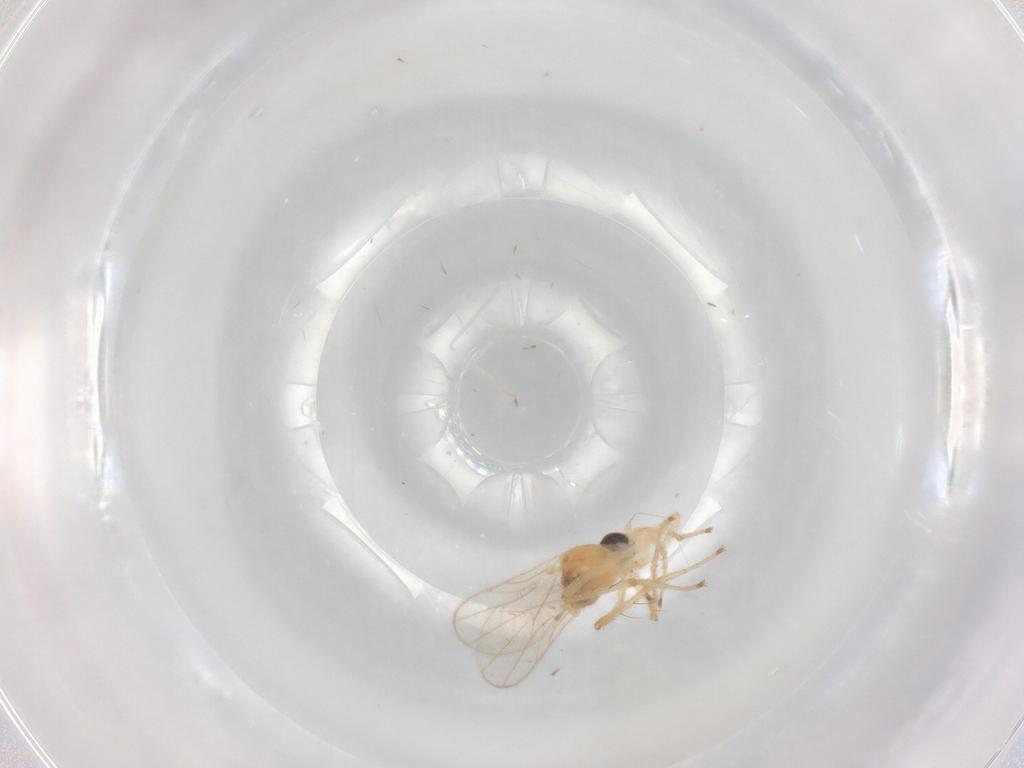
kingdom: Animalia
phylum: Arthropoda
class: Insecta
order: Diptera
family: Hybotidae
